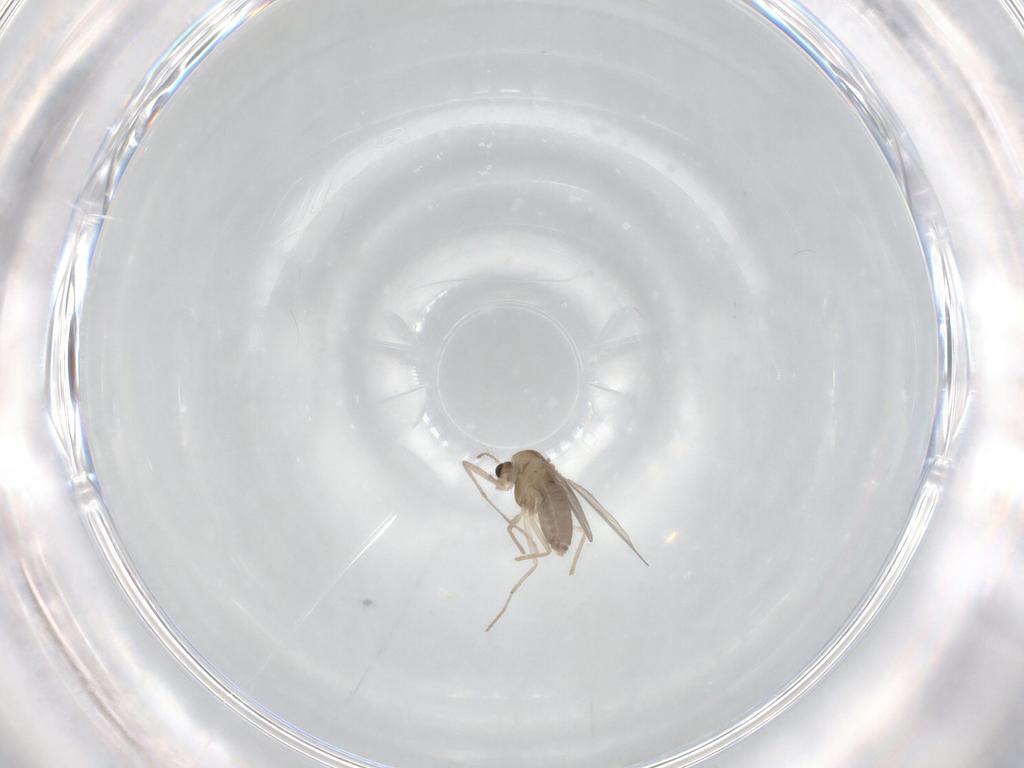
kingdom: Animalia
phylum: Arthropoda
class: Insecta
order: Diptera
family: Chironomidae
